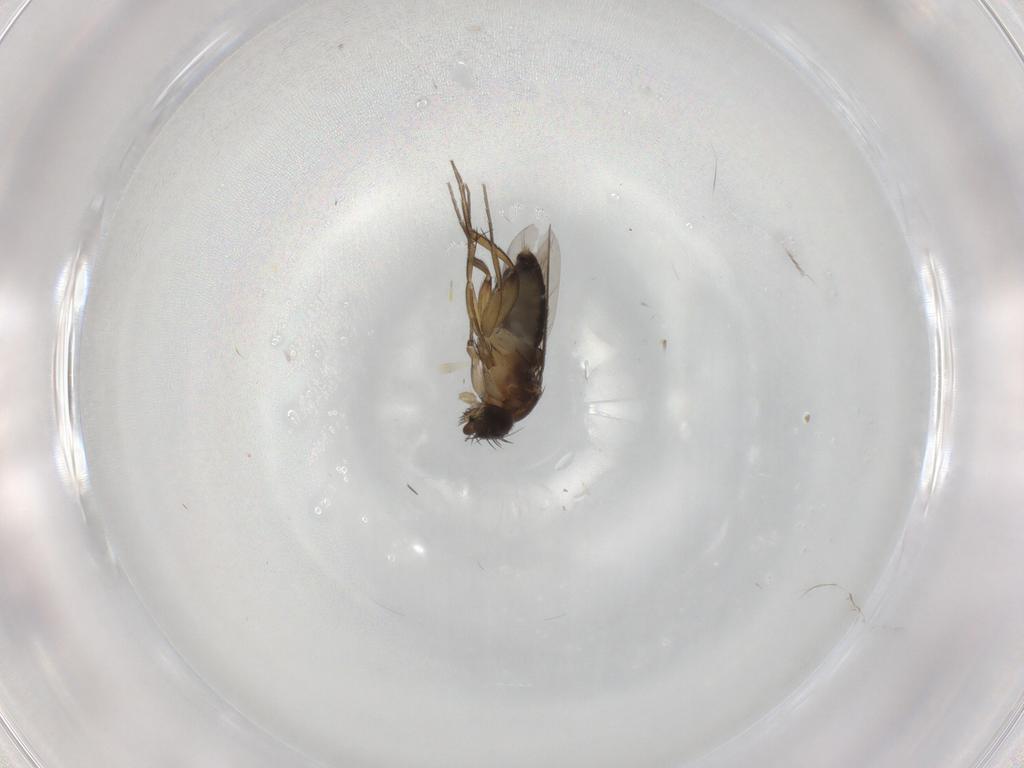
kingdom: Animalia
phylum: Arthropoda
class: Insecta
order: Diptera
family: Phoridae
